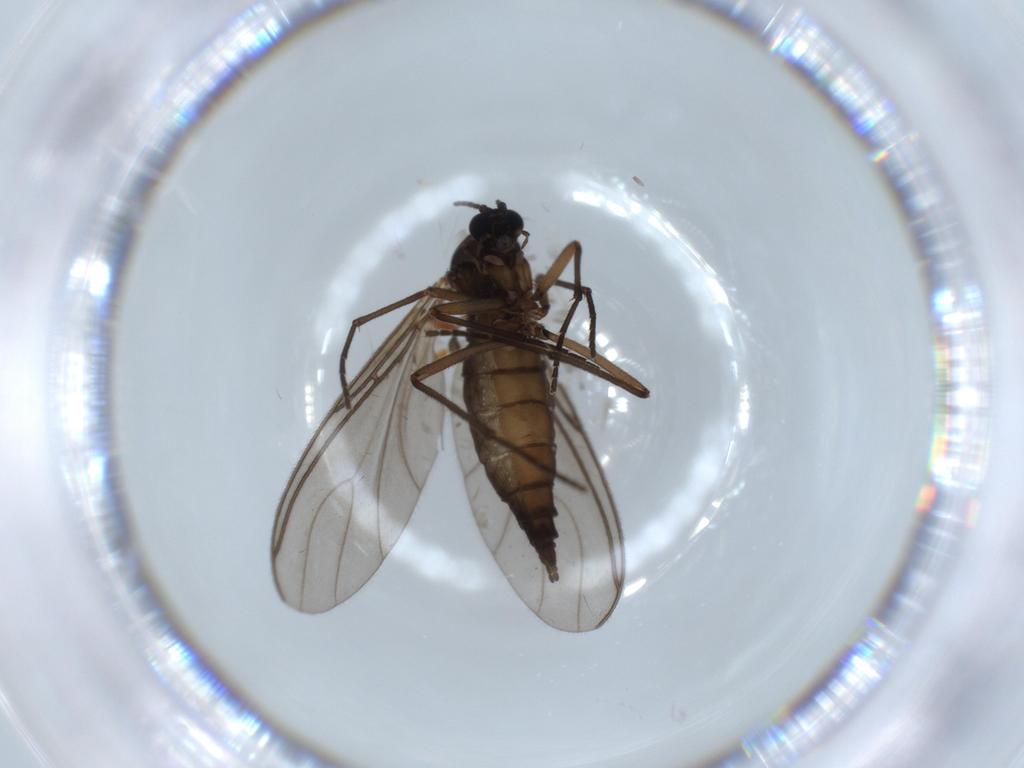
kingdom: Animalia
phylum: Arthropoda
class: Insecta
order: Diptera
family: Sciaridae
